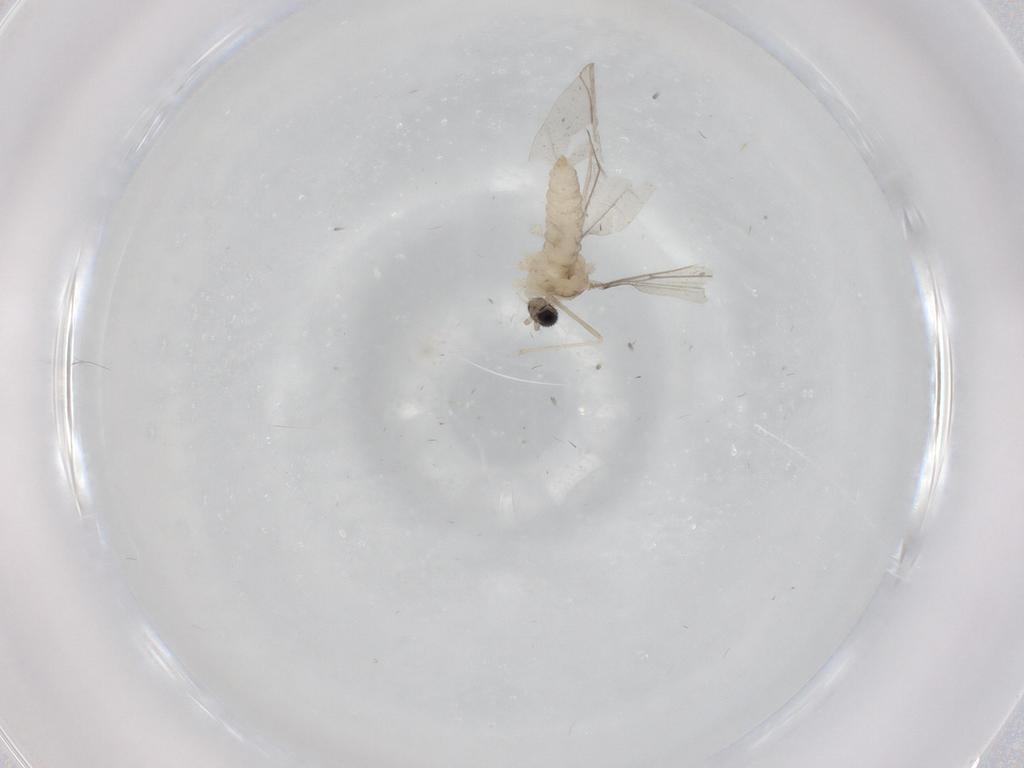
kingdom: Animalia
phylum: Arthropoda
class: Insecta
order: Diptera
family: Cecidomyiidae
